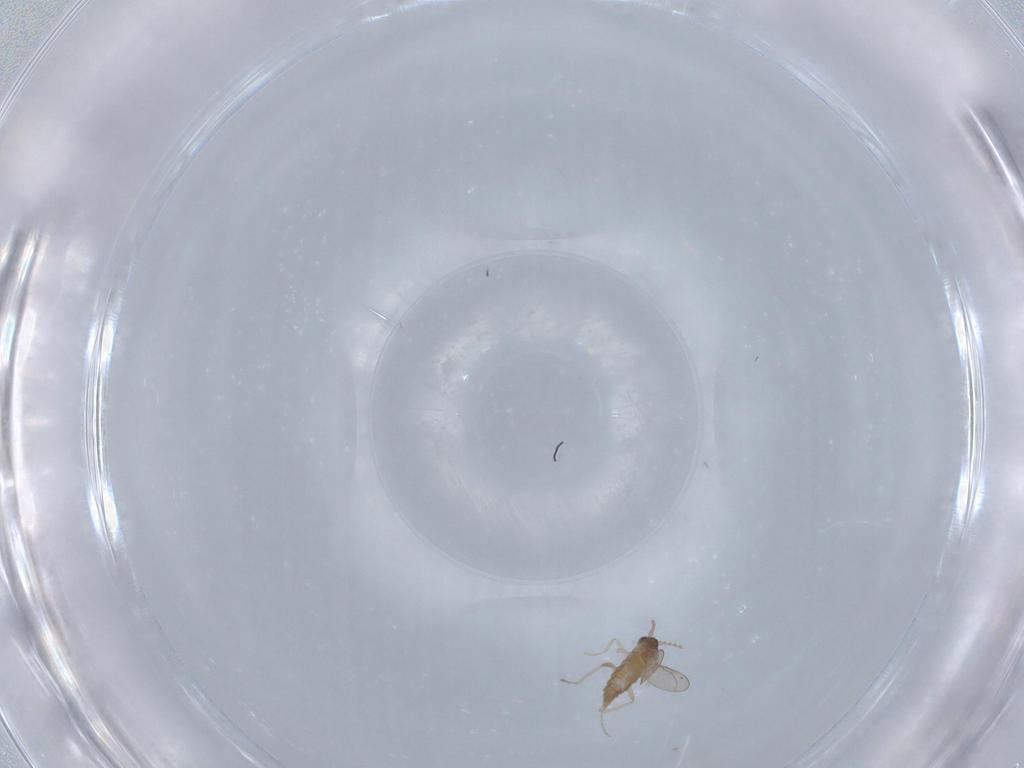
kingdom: Animalia
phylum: Arthropoda
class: Insecta
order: Diptera
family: Cecidomyiidae
